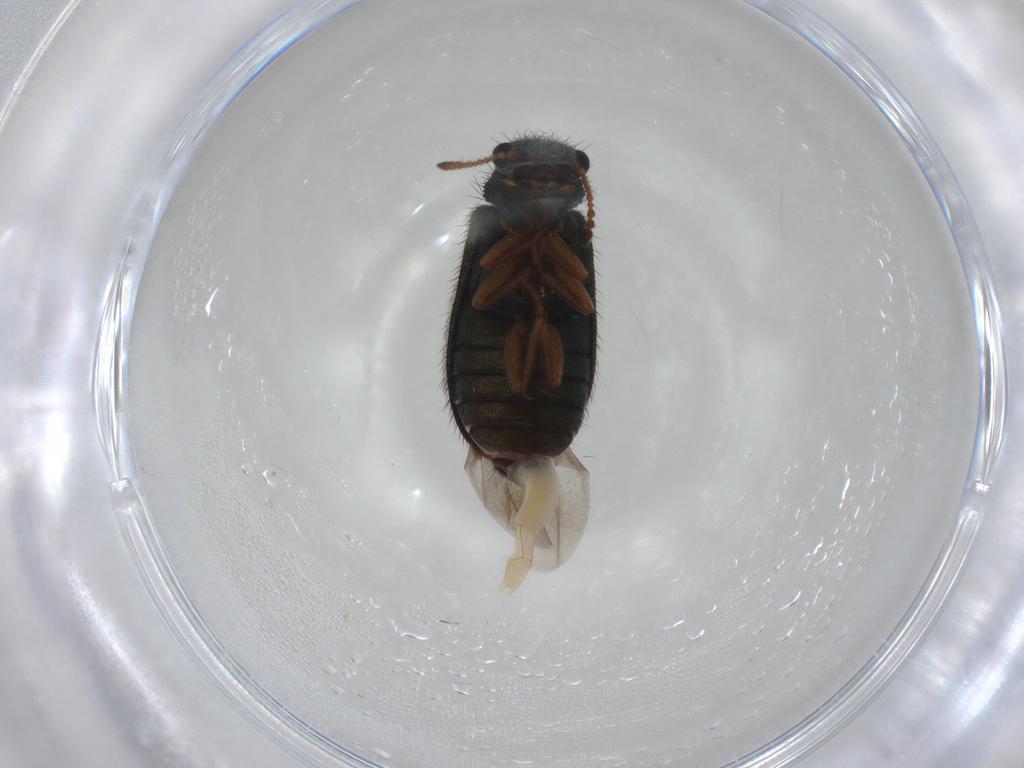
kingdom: Animalia
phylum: Arthropoda
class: Insecta
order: Coleoptera
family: Melyridae
